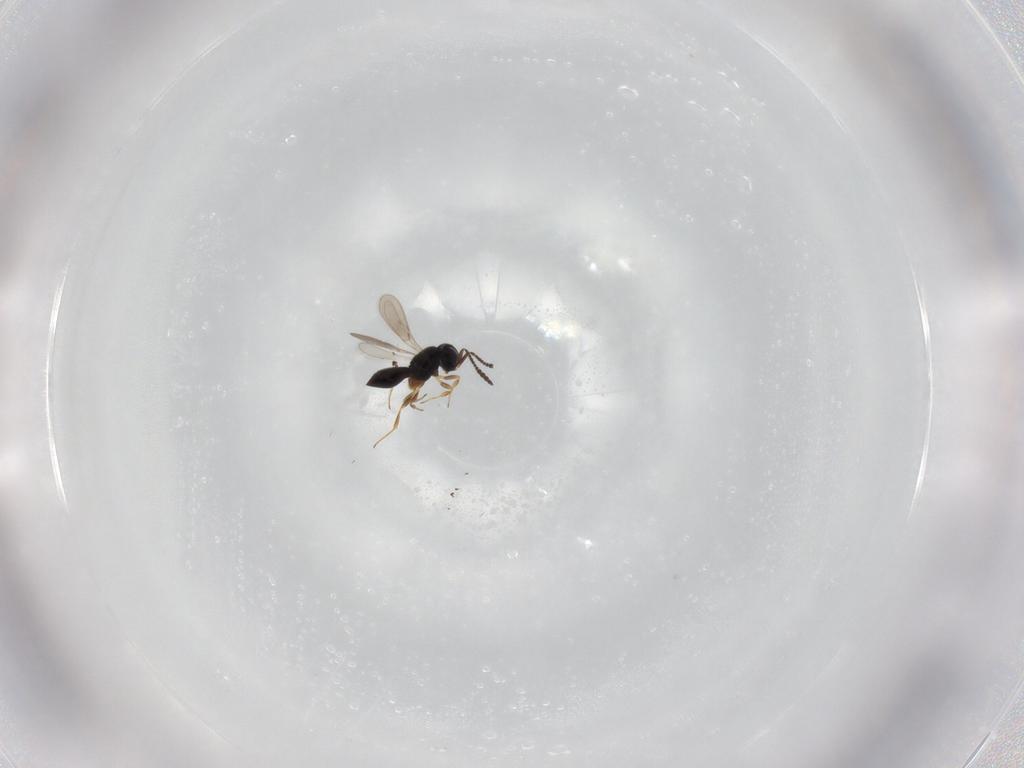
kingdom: Animalia
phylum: Arthropoda
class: Insecta
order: Hymenoptera
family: Scelionidae
